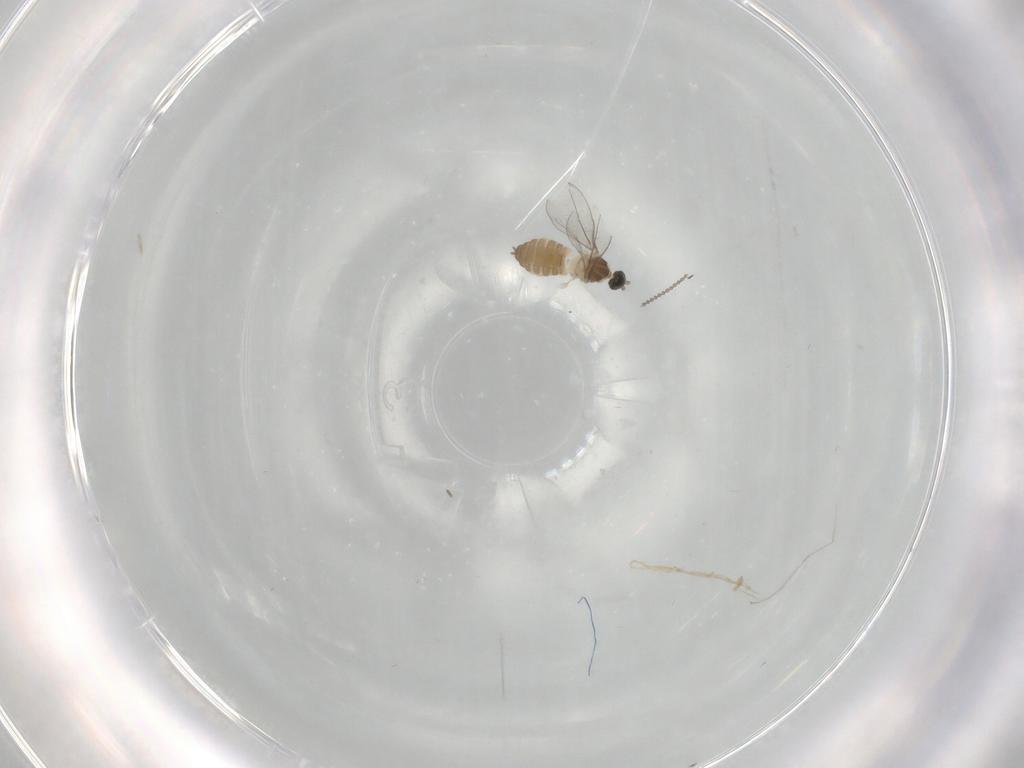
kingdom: Animalia
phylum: Arthropoda
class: Insecta
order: Diptera
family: Cecidomyiidae
